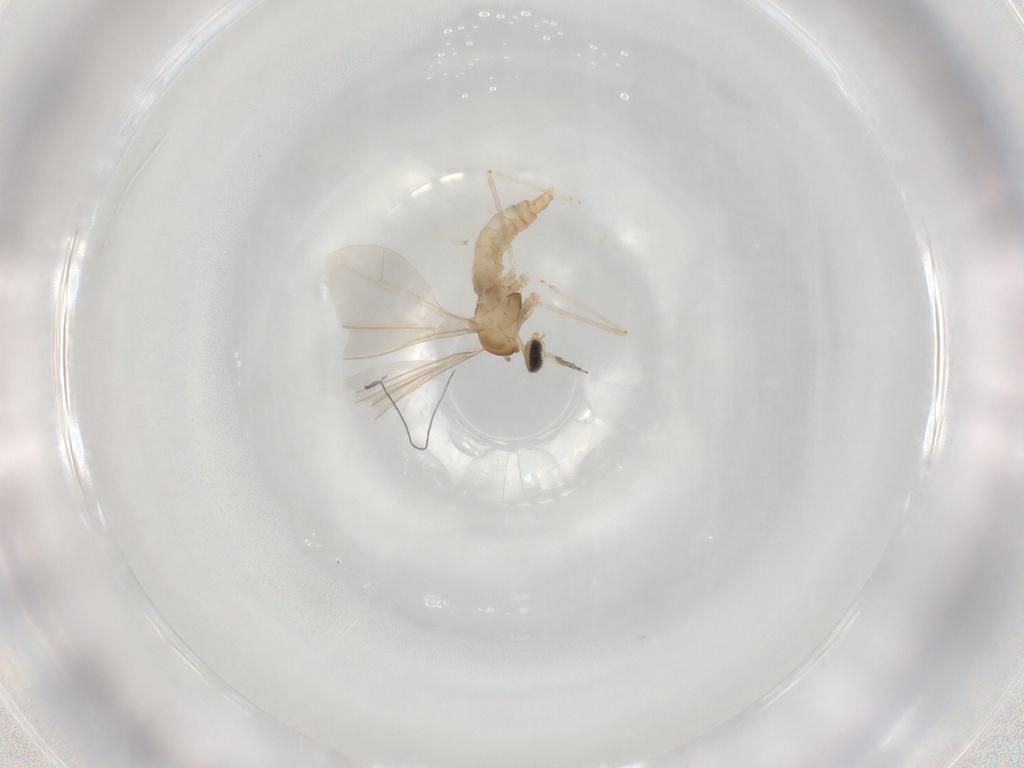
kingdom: Animalia
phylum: Arthropoda
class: Insecta
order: Diptera
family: Cecidomyiidae
